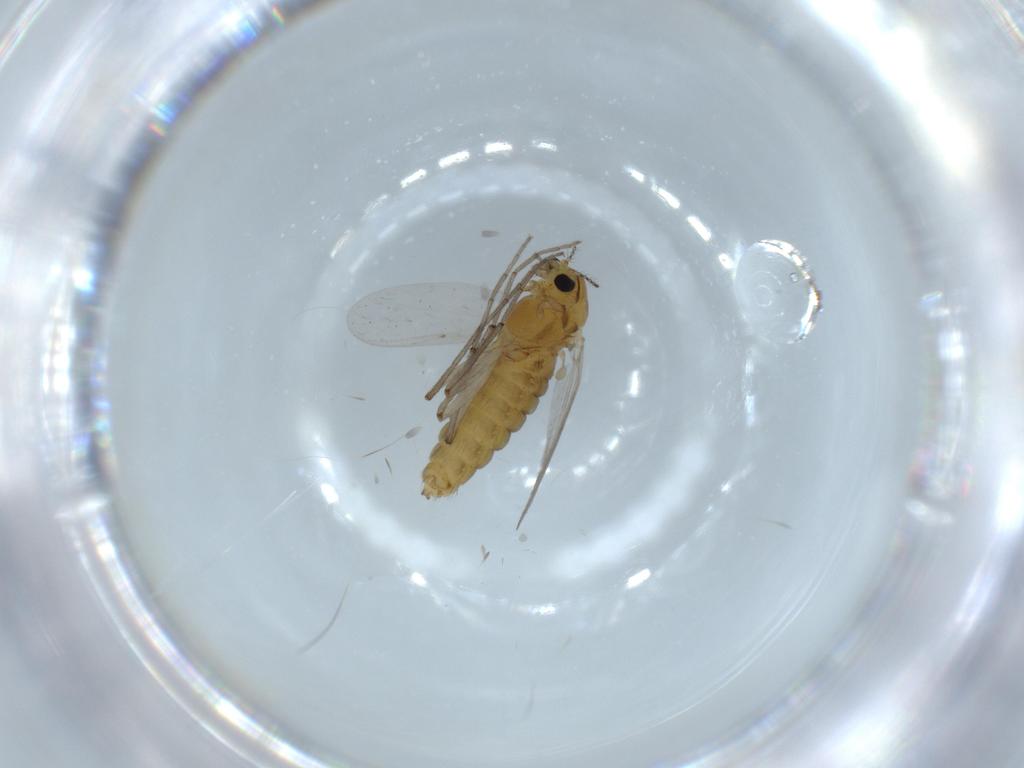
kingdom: Animalia
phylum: Arthropoda
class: Insecta
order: Diptera
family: Chironomidae
